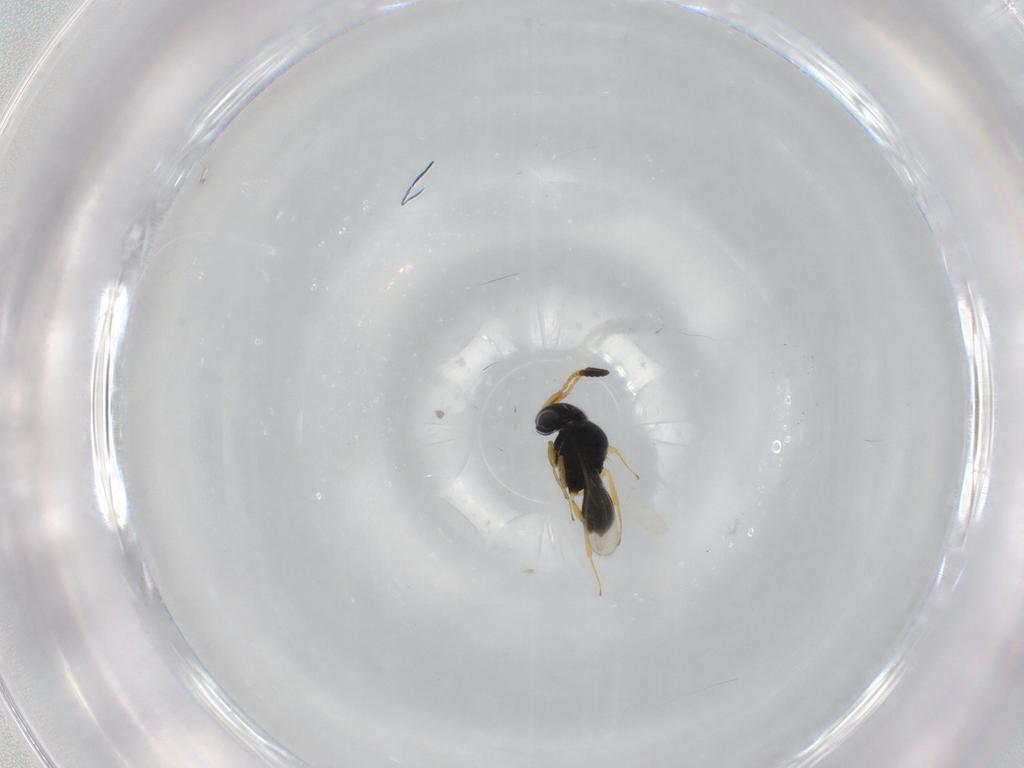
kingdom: Animalia
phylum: Arthropoda
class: Insecta
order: Hymenoptera
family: Scelionidae
